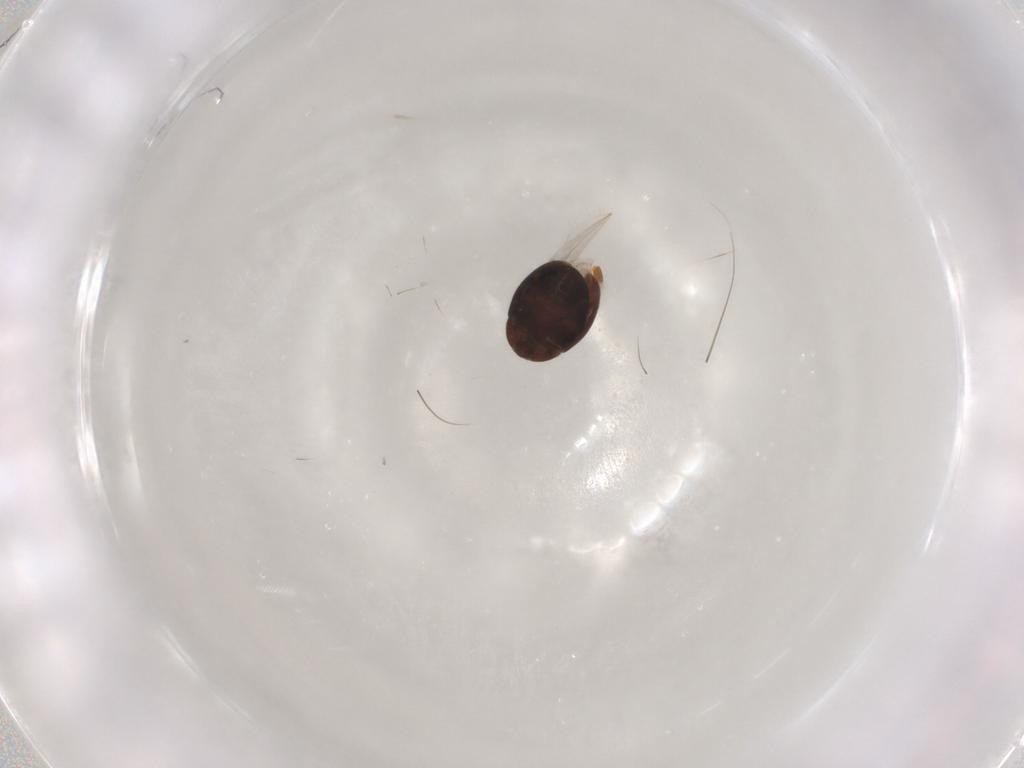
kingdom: Animalia
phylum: Arthropoda
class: Insecta
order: Coleoptera
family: Corylophidae
